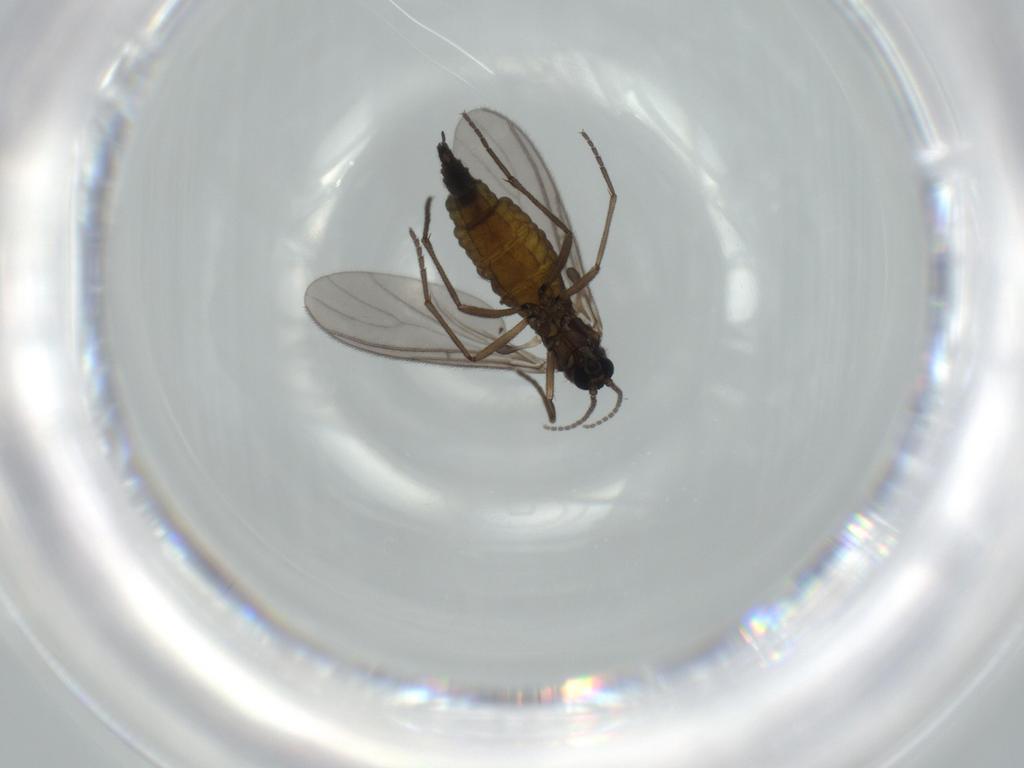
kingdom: Animalia
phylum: Arthropoda
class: Insecta
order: Diptera
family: Sciaridae
